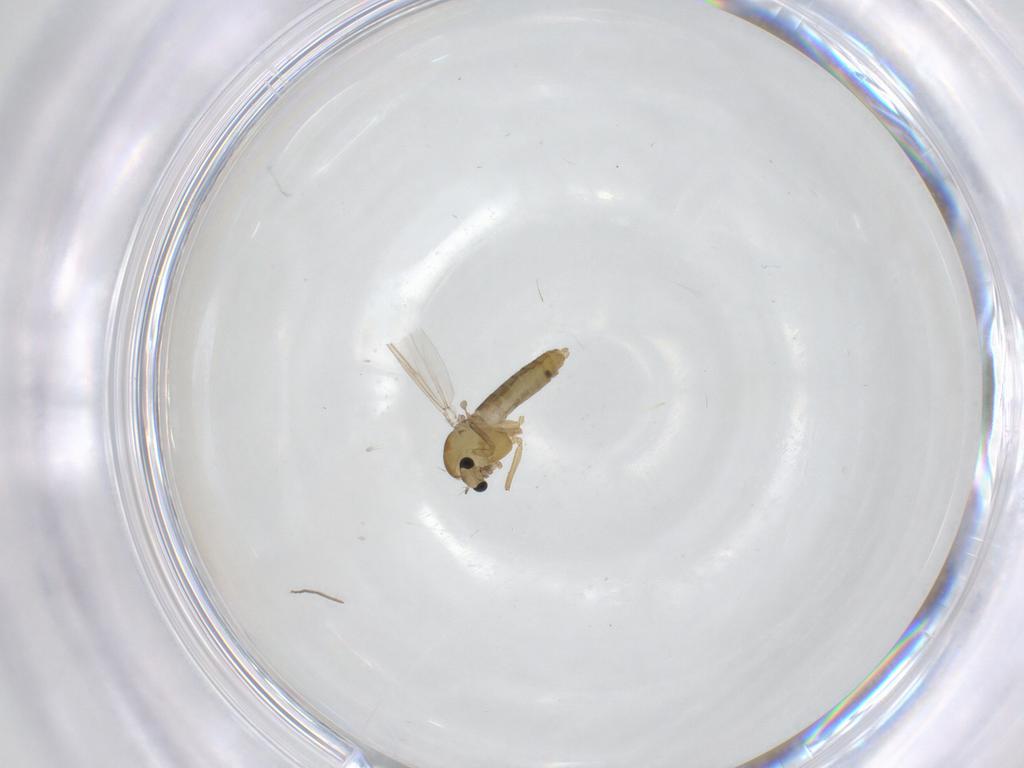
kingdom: Animalia
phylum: Arthropoda
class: Insecta
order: Diptera
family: Chironomidae
